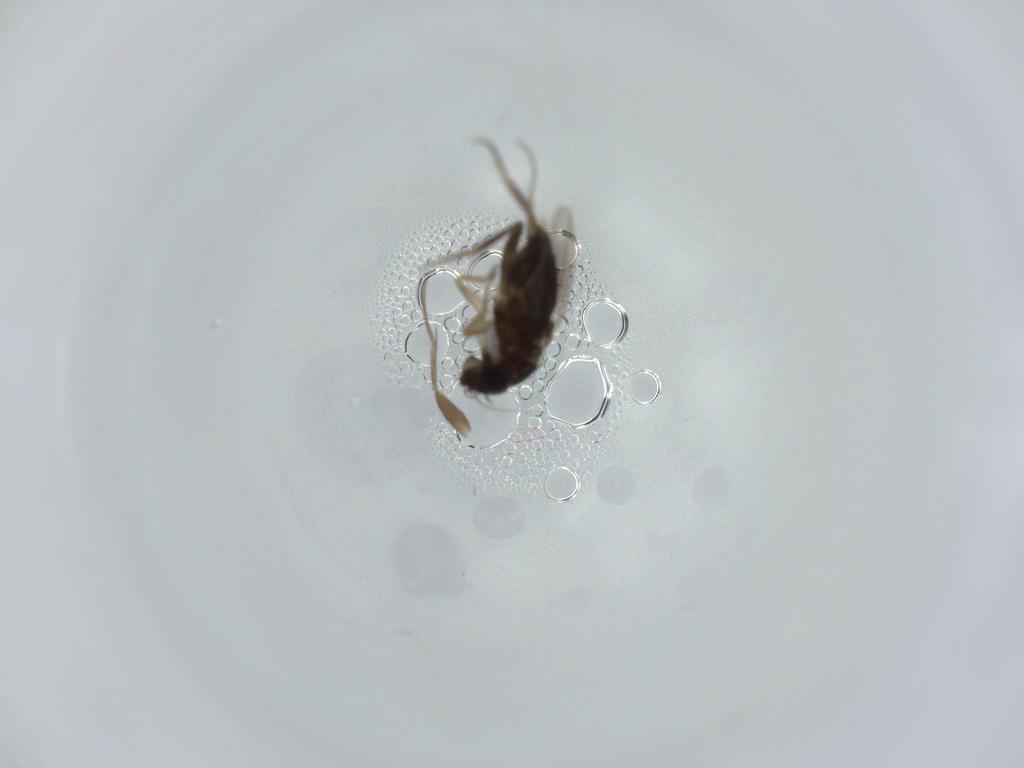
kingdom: Animalia
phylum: Arthropoda
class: Insecta
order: Diptera
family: Phoridae
